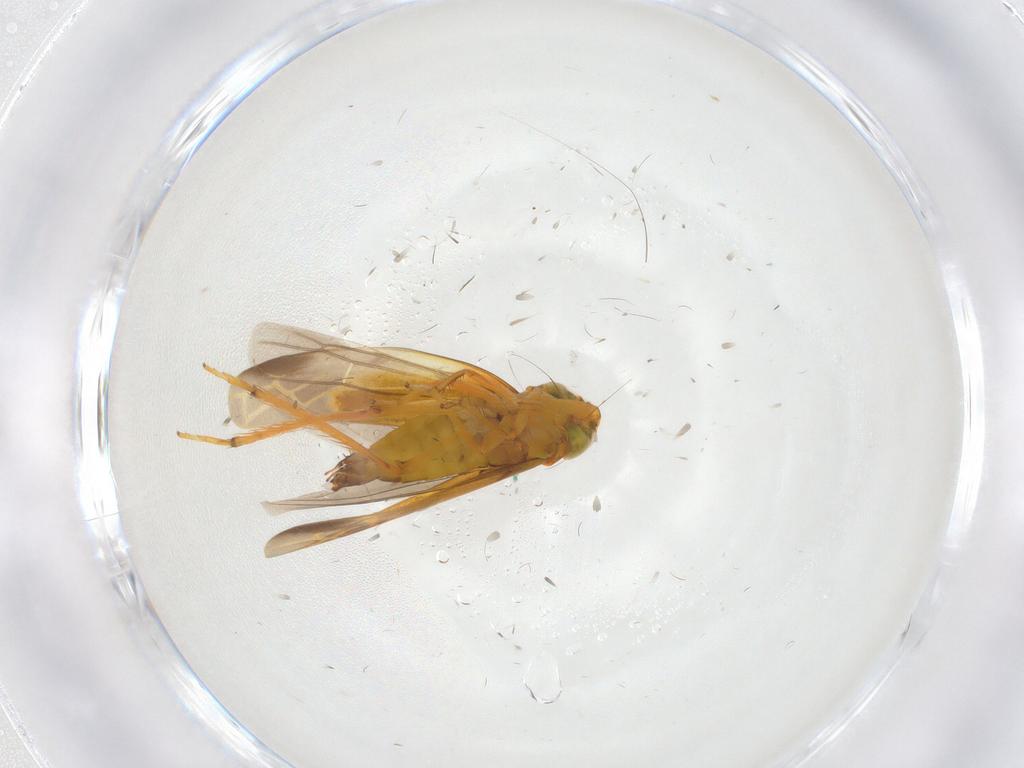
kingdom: Animalia
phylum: Arthropoda
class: Insecta
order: Hemiptera
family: Cicadellidae
